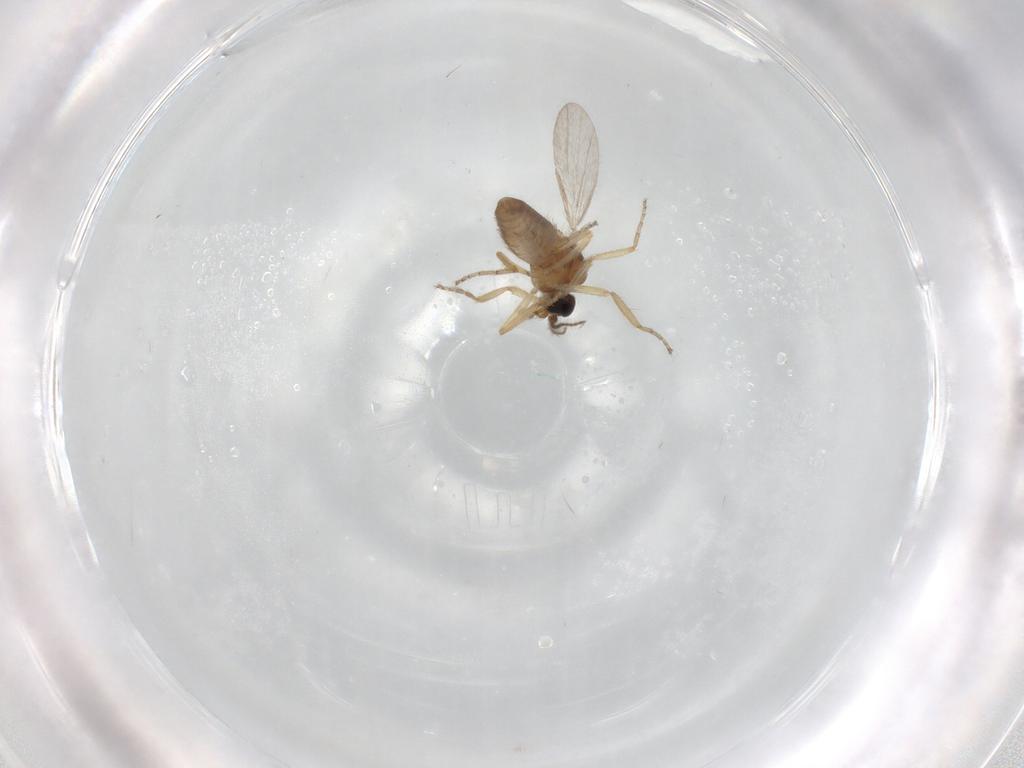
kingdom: Animalia
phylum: Arthropoda
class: Insecta
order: Diptera
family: Ceratopogonidae
